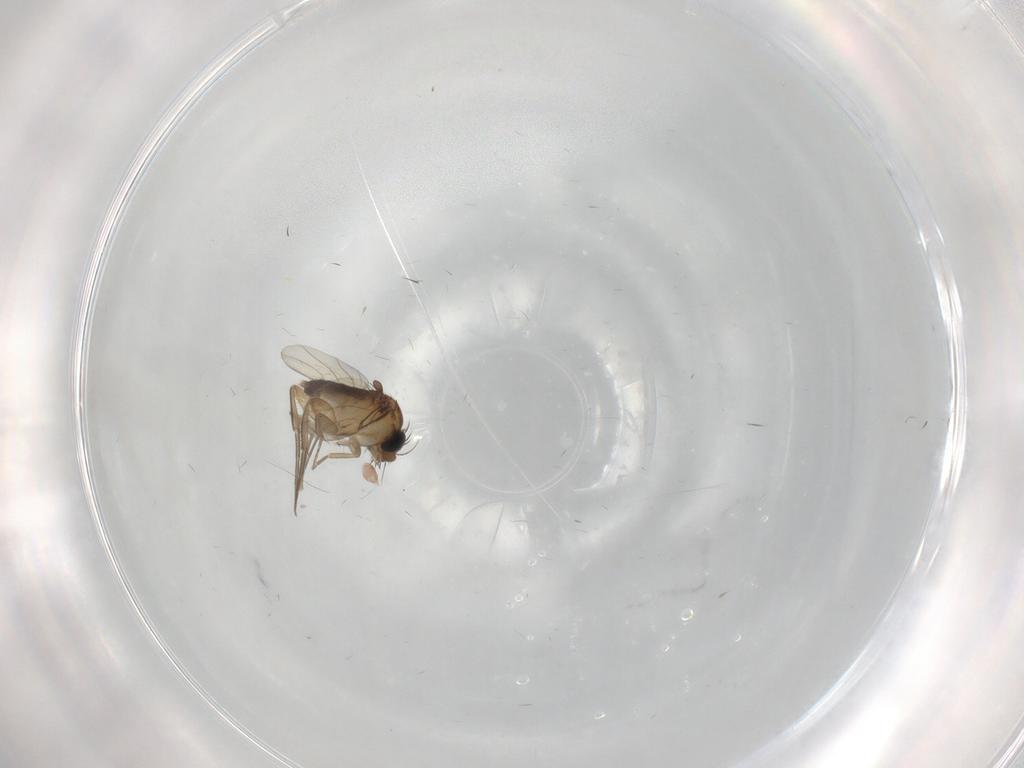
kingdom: Animalia
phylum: Arthropoda
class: Insecta
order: Diptera
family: Phoridae
